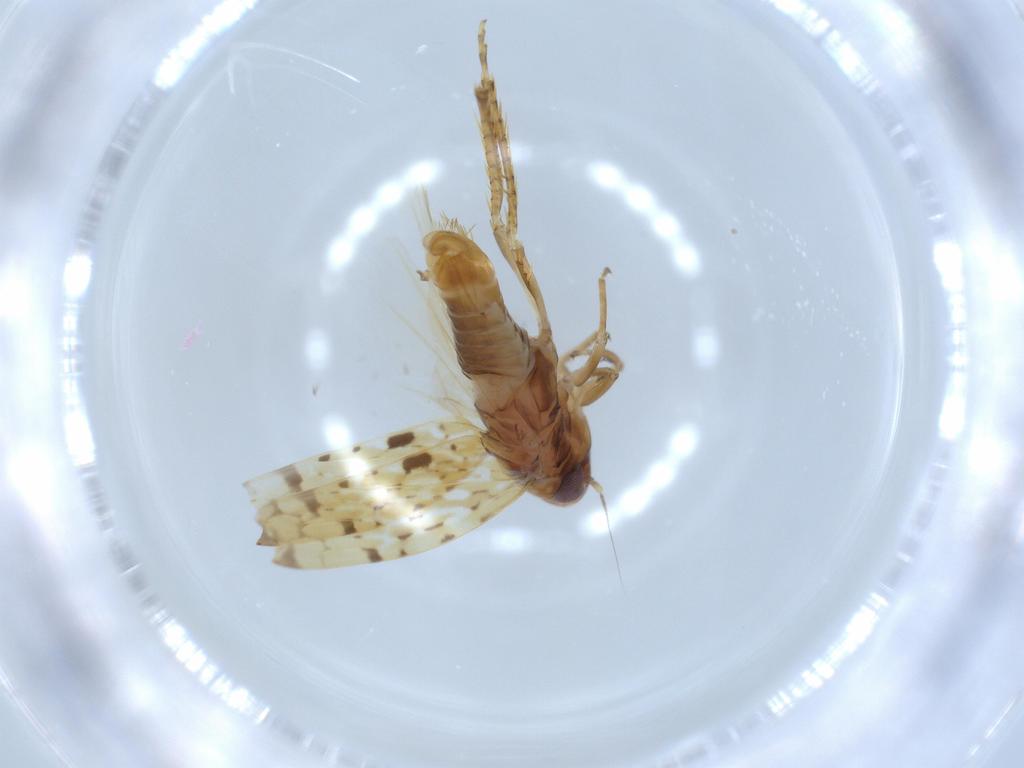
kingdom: Animalia
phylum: Arthropoda
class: Insecta
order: Hemiptera
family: Cicadellidae
